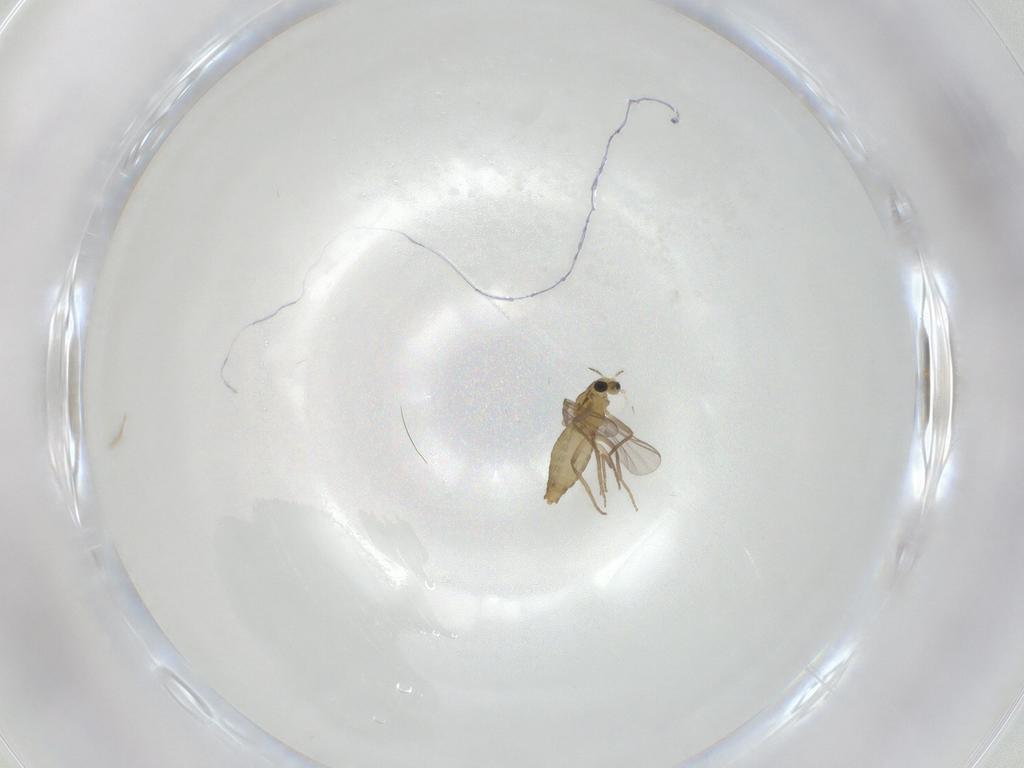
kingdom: Animalia
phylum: Arthropoda
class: Insecta
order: Diptera
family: Chironomidae
